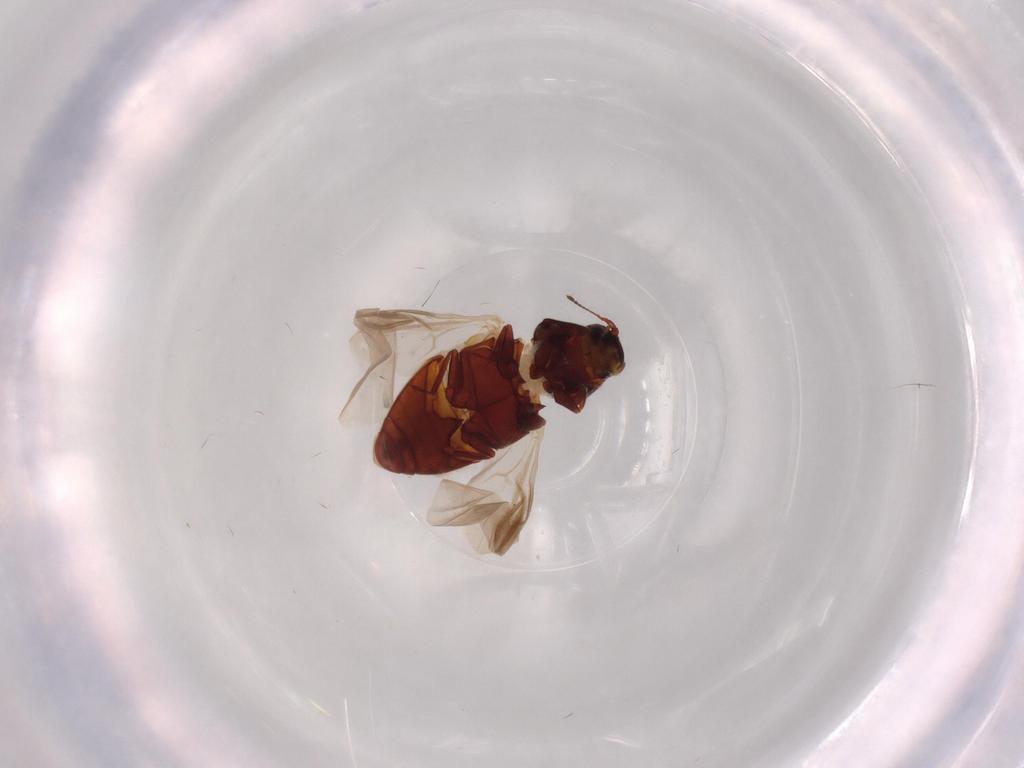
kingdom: Animalia
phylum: Arthropoda
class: Insecta
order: Coleoptera
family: Elateridae
